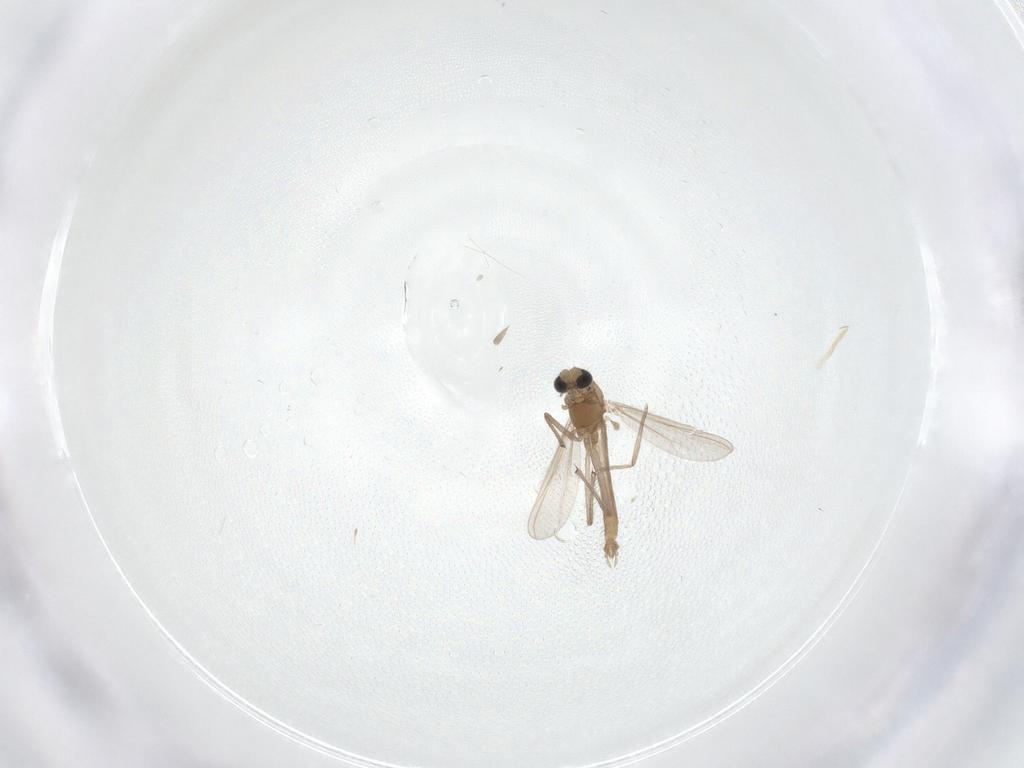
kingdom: Animalia
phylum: Arthropoda
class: Insecta
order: Diptera
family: Chironomidae
